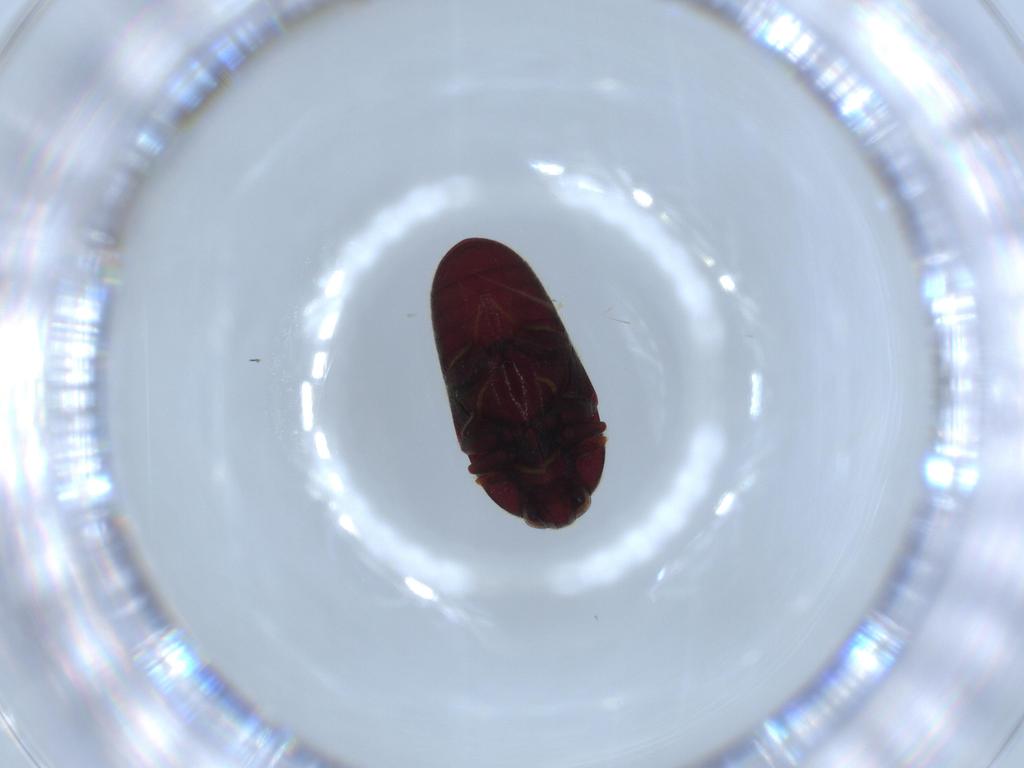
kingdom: Animalia
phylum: Arthropoda
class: Insecta
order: Coleoptera
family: Throscidae
